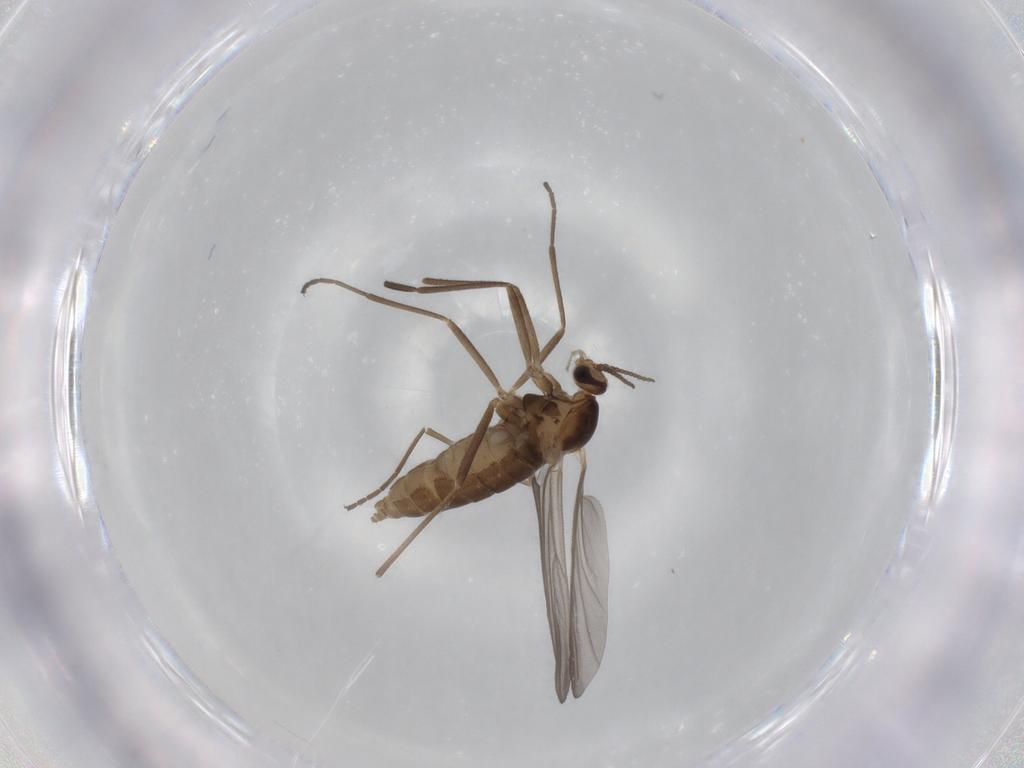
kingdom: Animalia
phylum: Arthropoda
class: Insecta
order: Diptera
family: Cecidomyiidae
